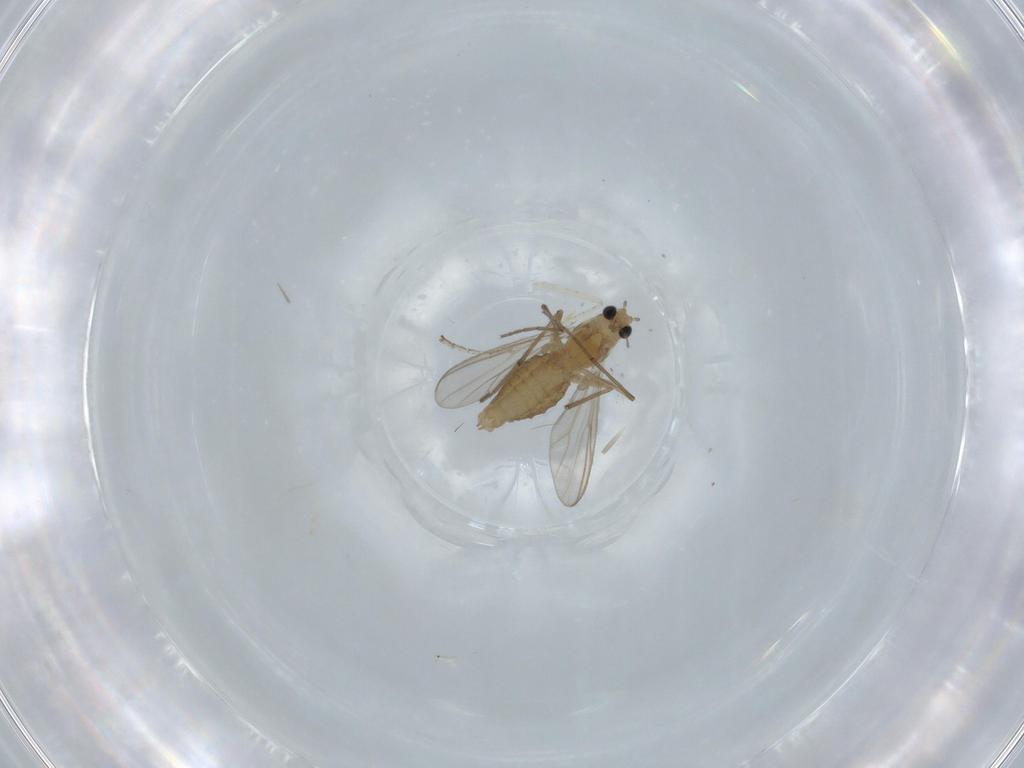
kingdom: Animalia
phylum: Arthropoda
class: Insecta
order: Diptera
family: Chironomidae
